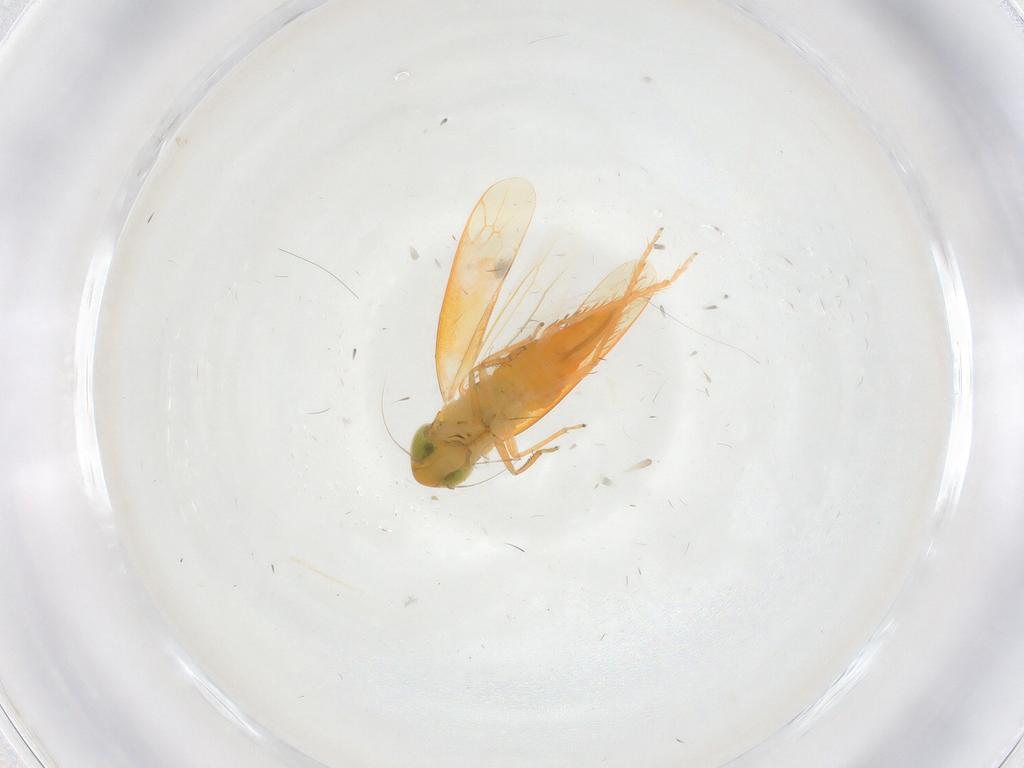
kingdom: Animalia
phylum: Arthropoda
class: Insecta
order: Hemiptera
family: Cicadellidae
